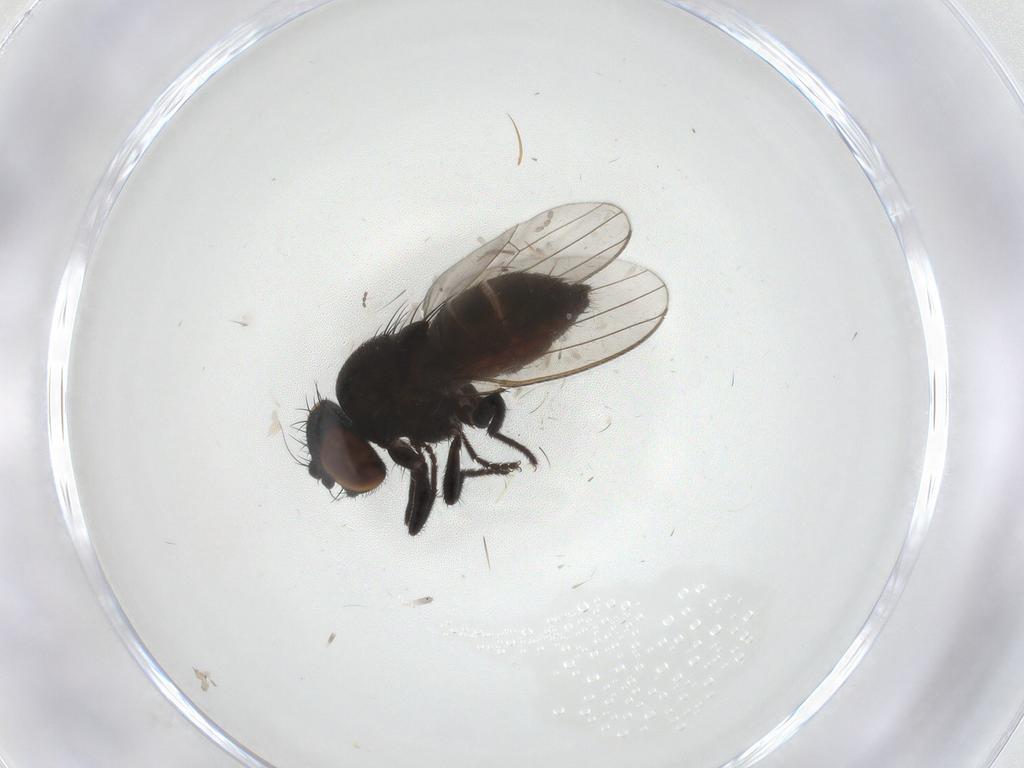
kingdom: Animalia
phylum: Arthropoda
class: Insecta
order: Diptera
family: Milichiidae
